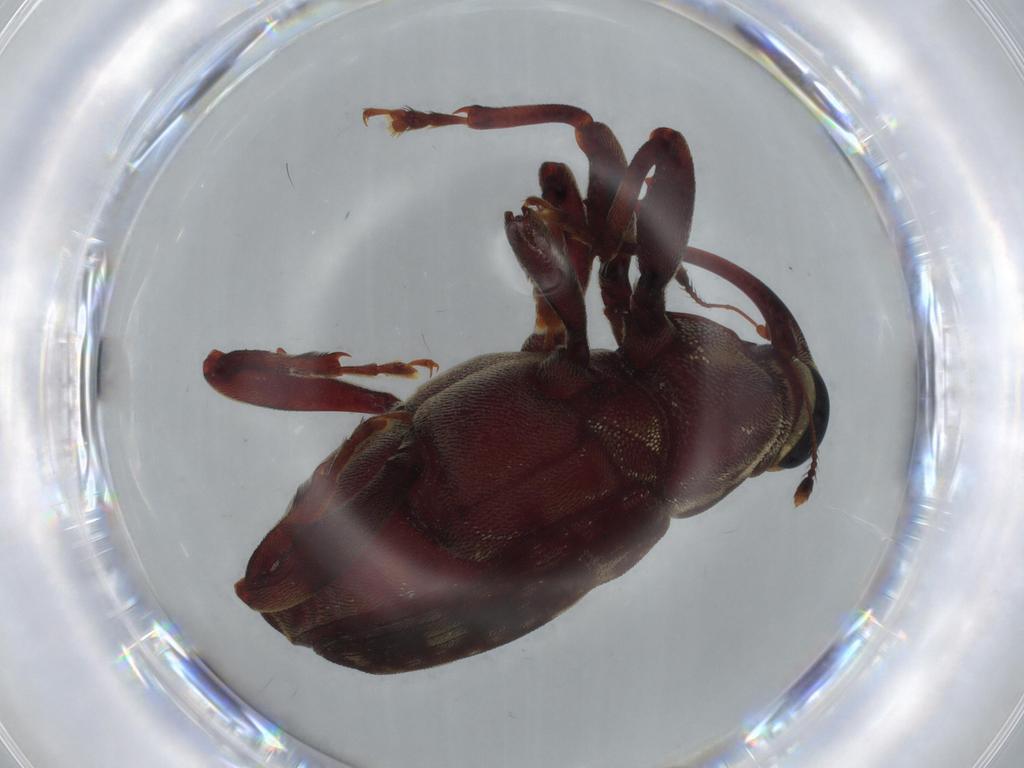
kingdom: Animalia
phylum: Arthropoda
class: Insecta
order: Coleoptera
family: Curculionidae
